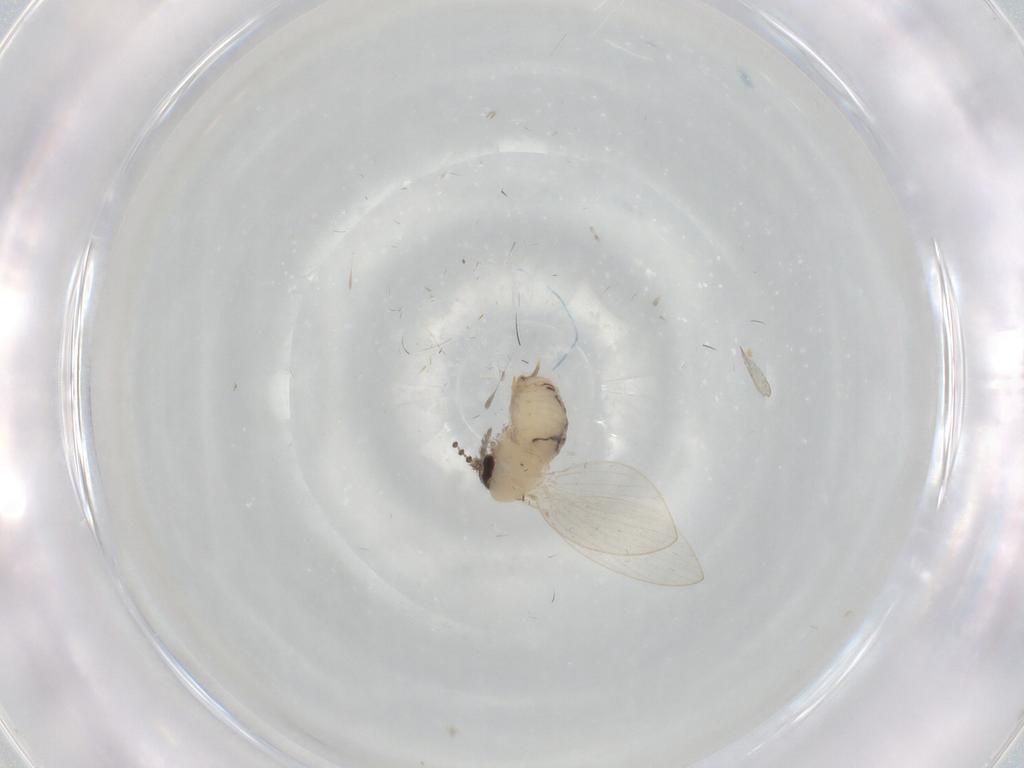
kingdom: Animalia
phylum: Arthropoda
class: Insecta
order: Diptera
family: Psychodidae
